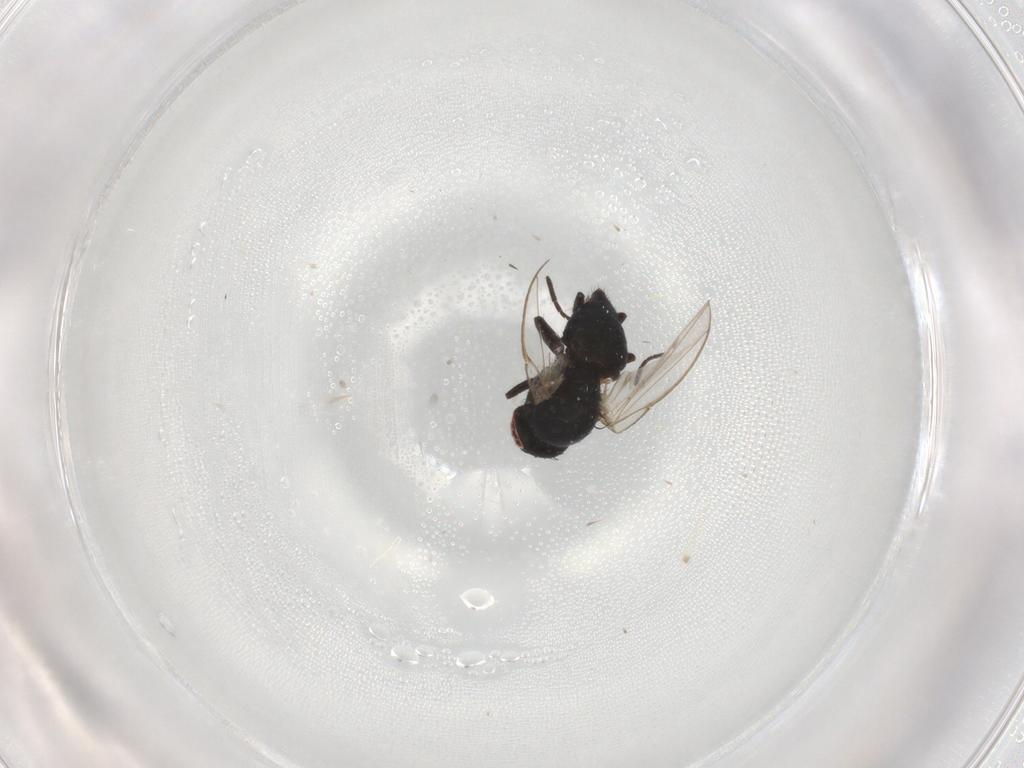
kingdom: Animalia
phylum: Arthropoda
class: Insecta
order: Diptera
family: Agromyzidae
